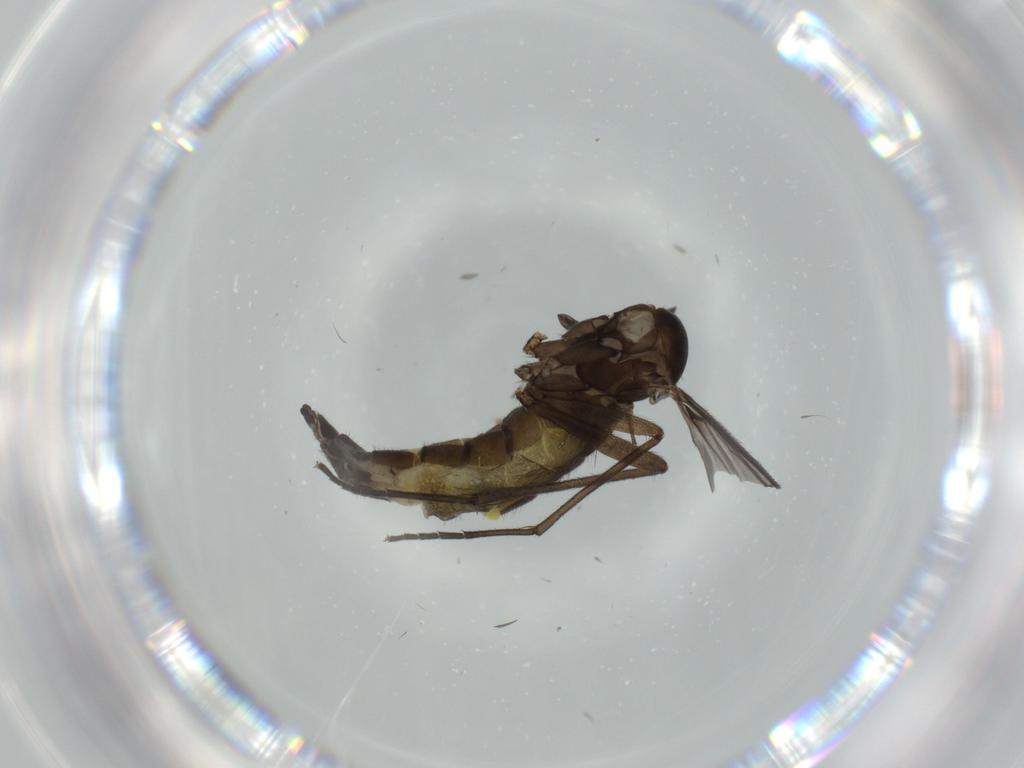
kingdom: Animalia
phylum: Arthropoda
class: Insecta
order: Diptera
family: Sciaridae
